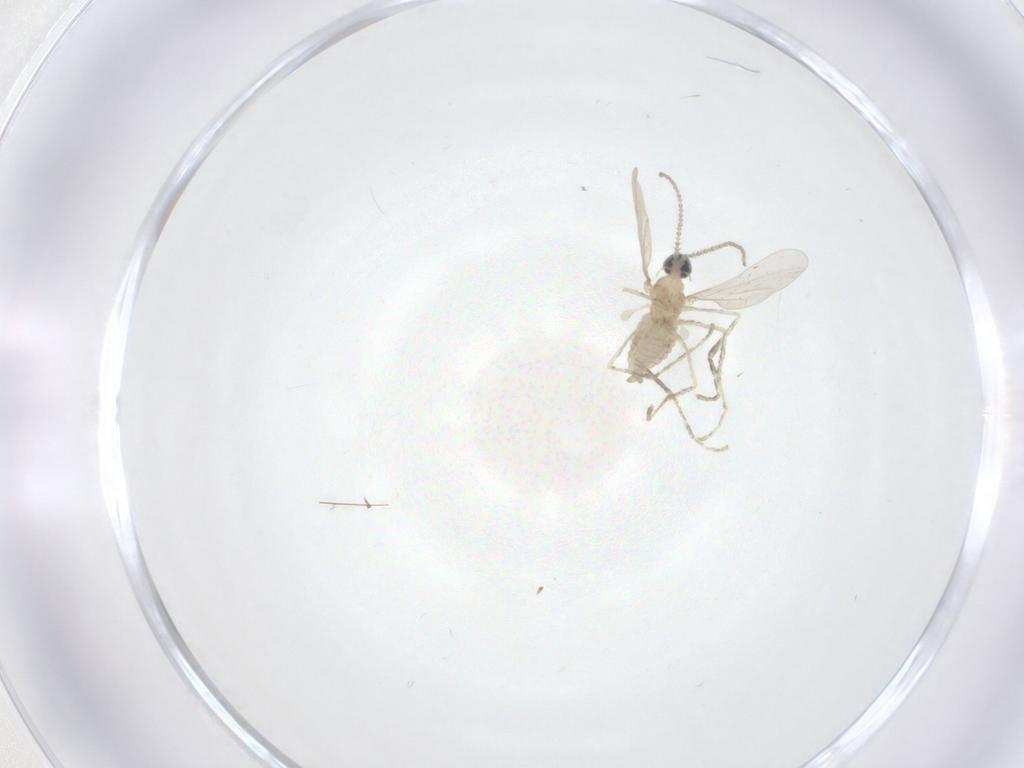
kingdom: Animalia
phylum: Arthropoda
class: Insecta
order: Diptera
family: Cecidomyiidae
